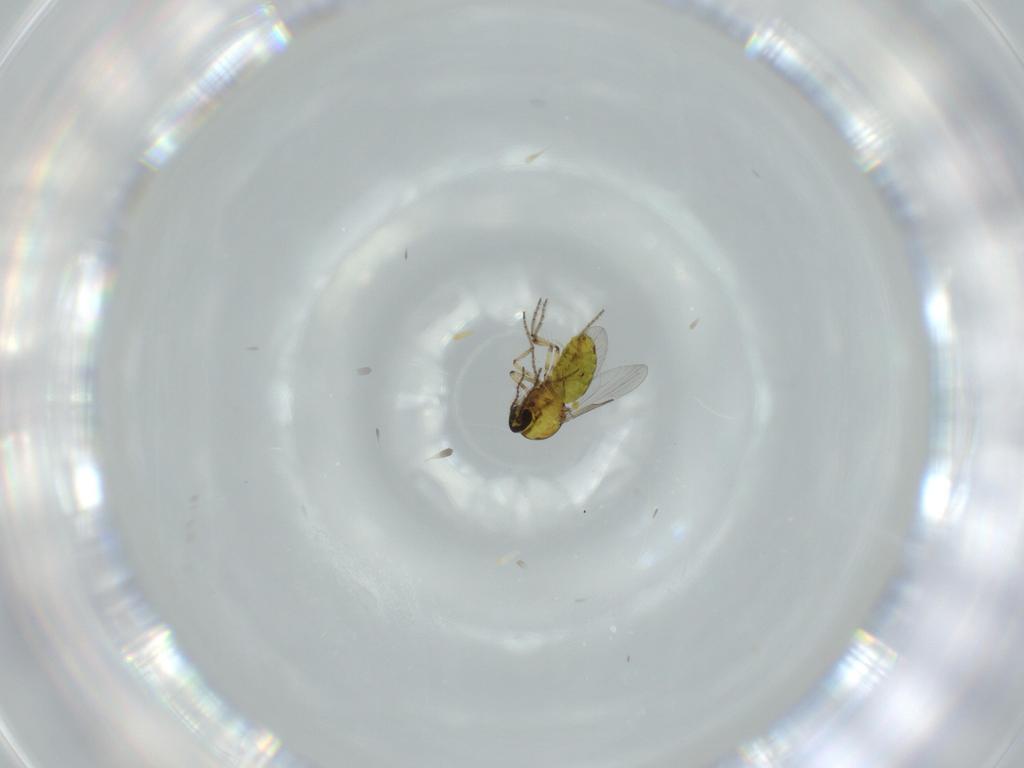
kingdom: Animalia
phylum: Arthropoda
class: Insecta
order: Diptera
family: Ceratopogonidae
